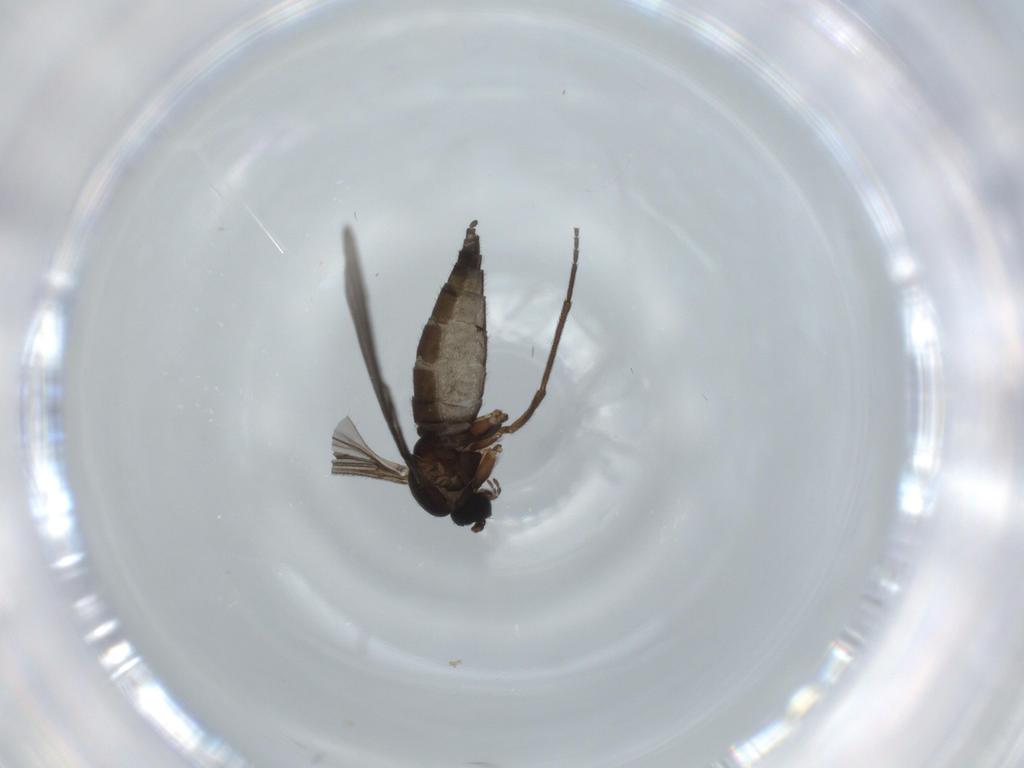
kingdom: Animalia
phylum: Arthropoda
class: Insecta
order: Diptera
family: Sciaridae
